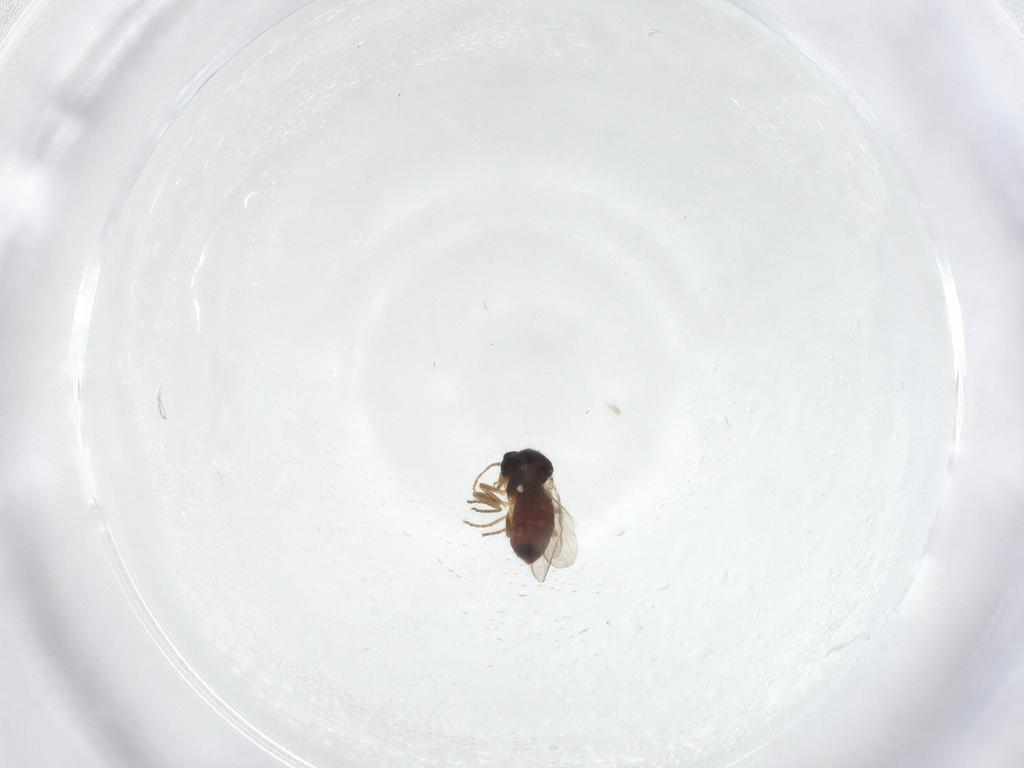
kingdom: Animalia
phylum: Arthropoda
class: Insecta
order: Diptera
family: Ceratopogonidae
